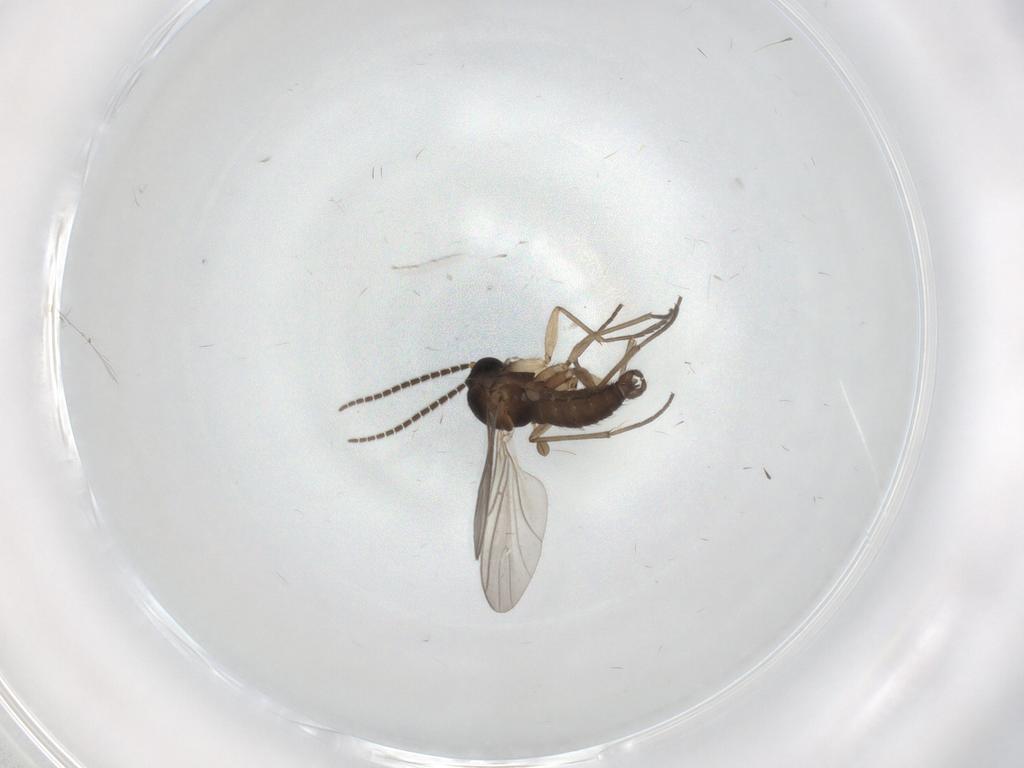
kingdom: Animalia
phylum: Arthropoda
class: Insecta
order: Diptera
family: Sciaridae
